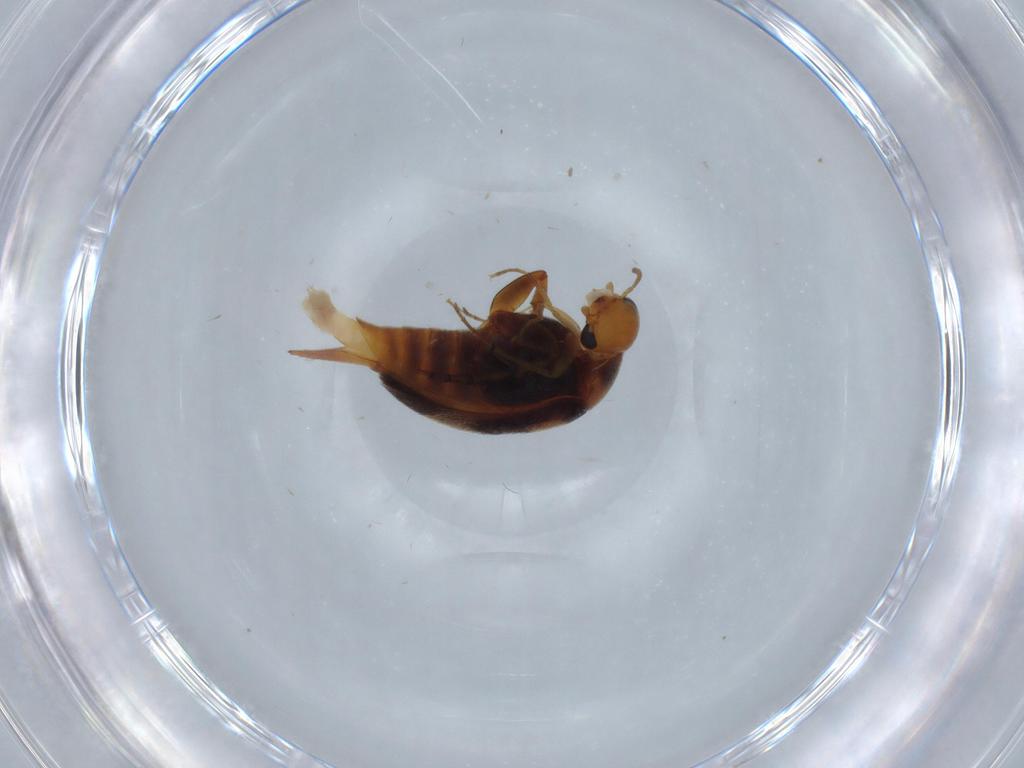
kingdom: Animalia
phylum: Arthropoda
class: Insecta
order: Coleoptera
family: Mordellidae
